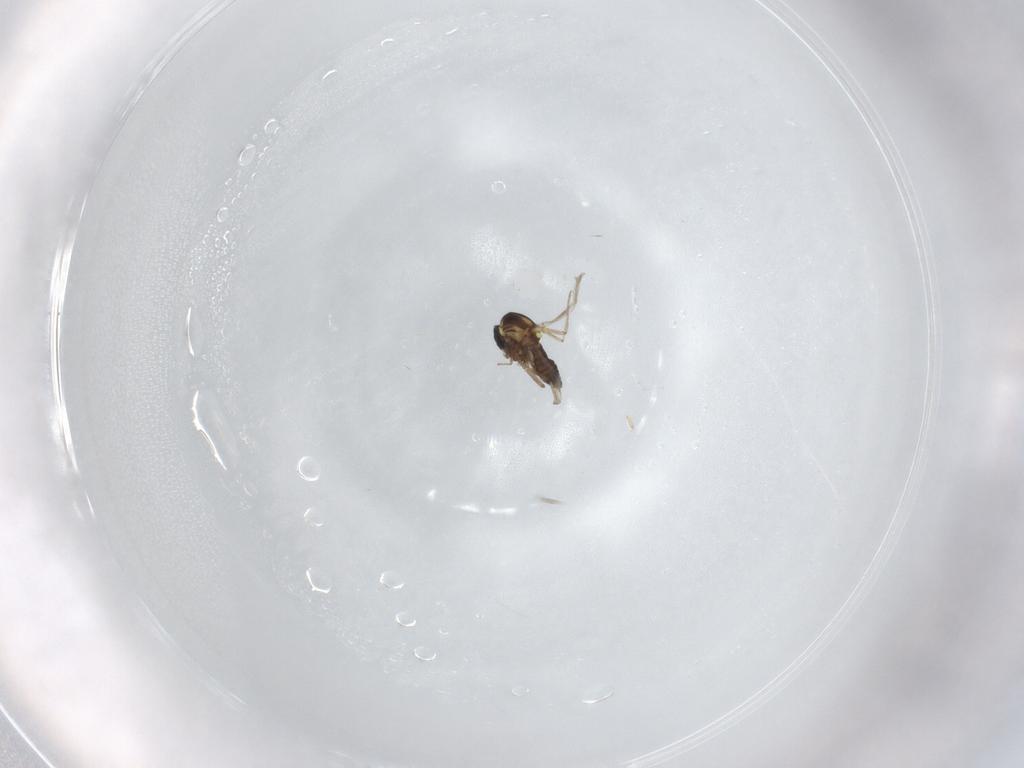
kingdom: Animalia
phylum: Arthropoda
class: Insecta
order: Diptera
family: Ceratopogonidae
